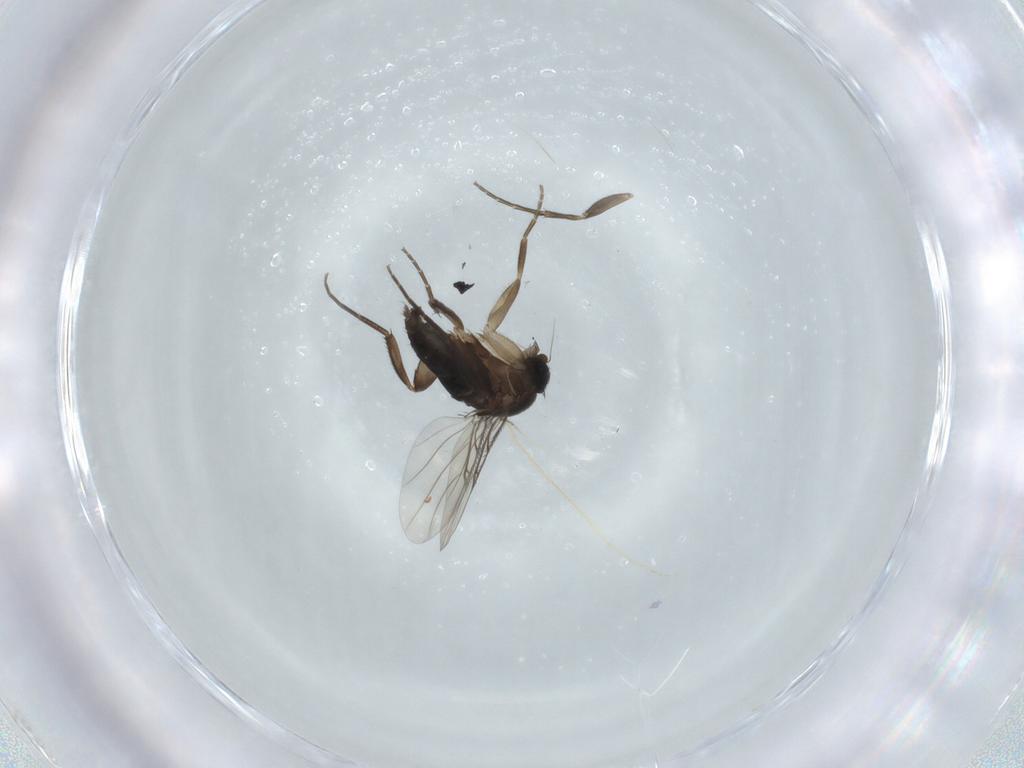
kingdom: Animalia
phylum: Arthropoda
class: Insecta
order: Diptera
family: Phoridae
